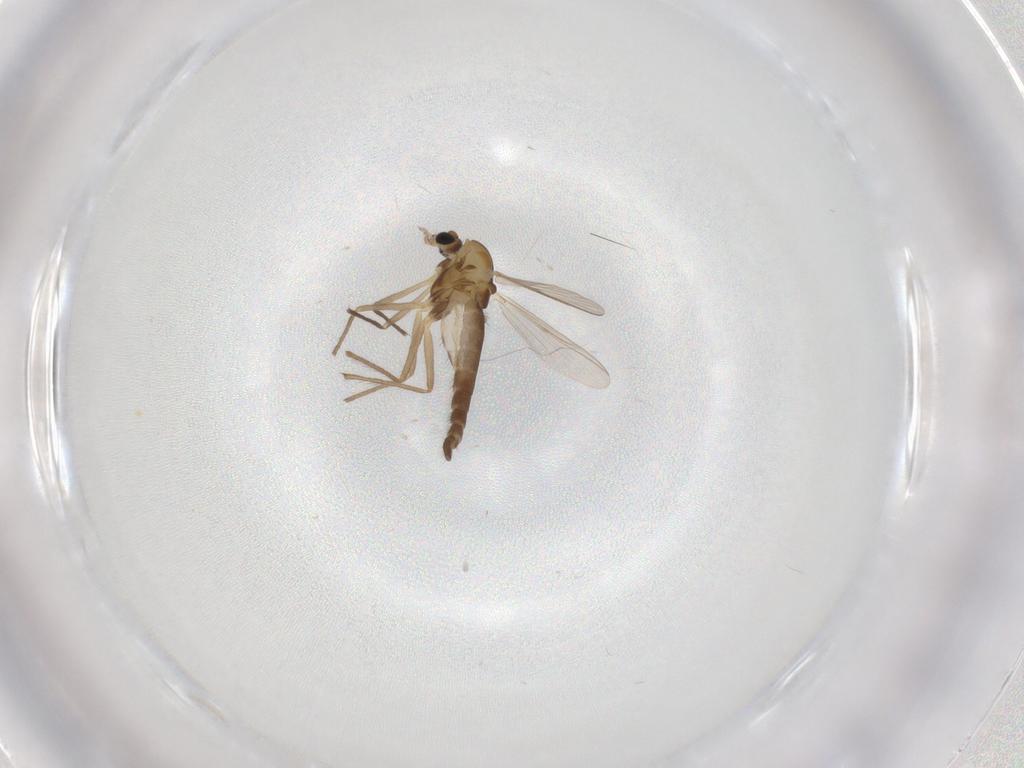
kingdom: Animalia
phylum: Arthropoda
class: Insecta
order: Diptera
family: Chironomidae
